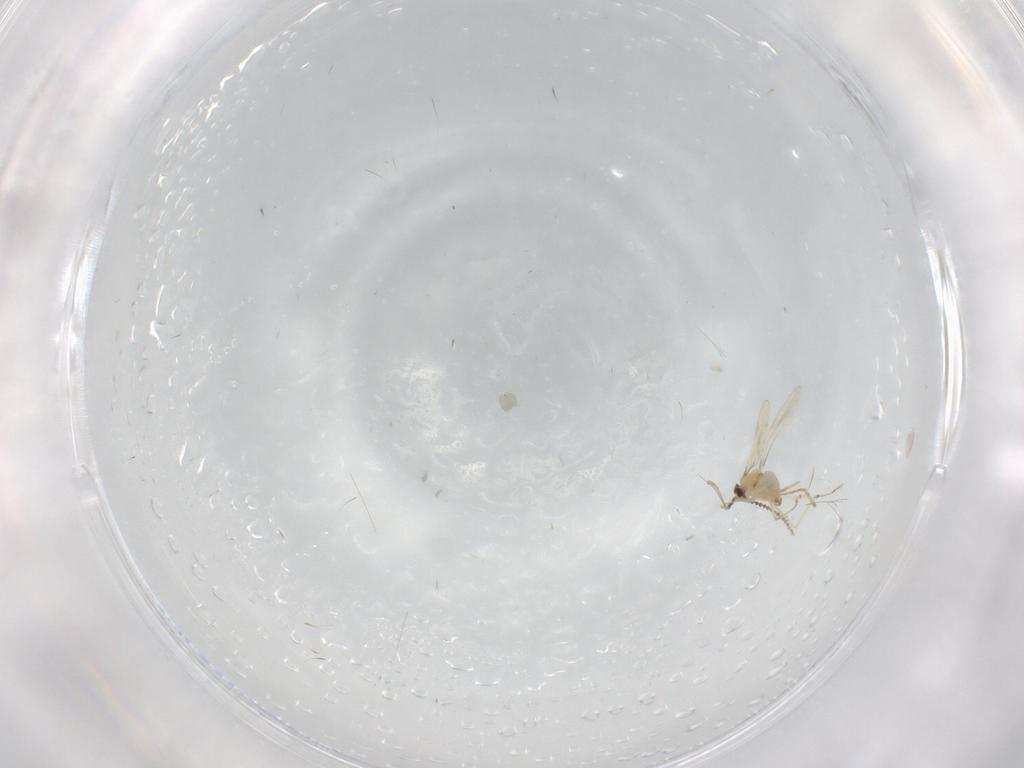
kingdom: Animalia
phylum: Arthropoda
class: Insecta
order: Diptera
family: Cecidomyiidae
